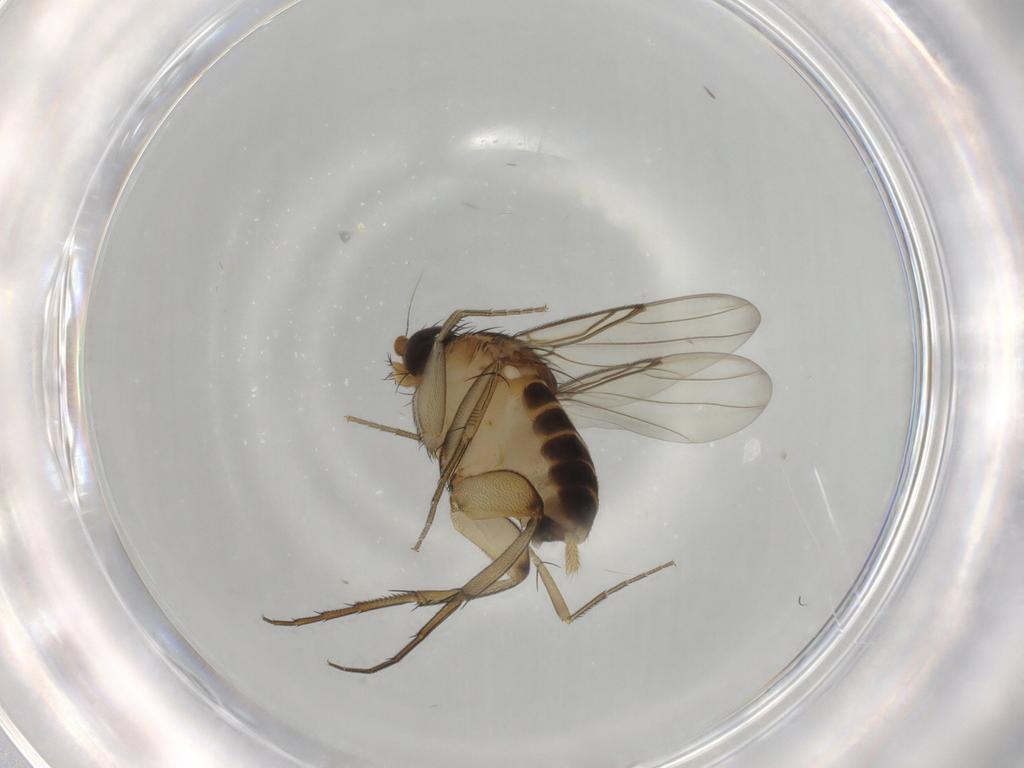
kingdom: Animalia
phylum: Arthropoda
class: Insecta
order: Diptera
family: Phoridae
